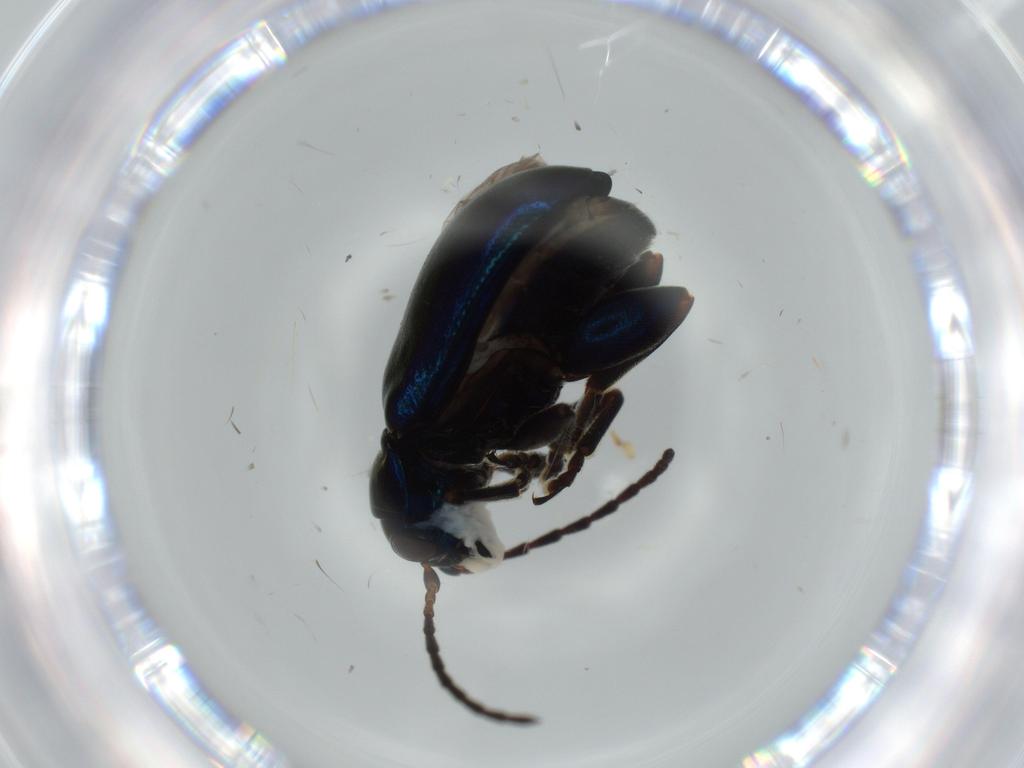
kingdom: Animalia
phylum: Arthropoda
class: Insecta
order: Coleoptera
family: Chrysomelidae
